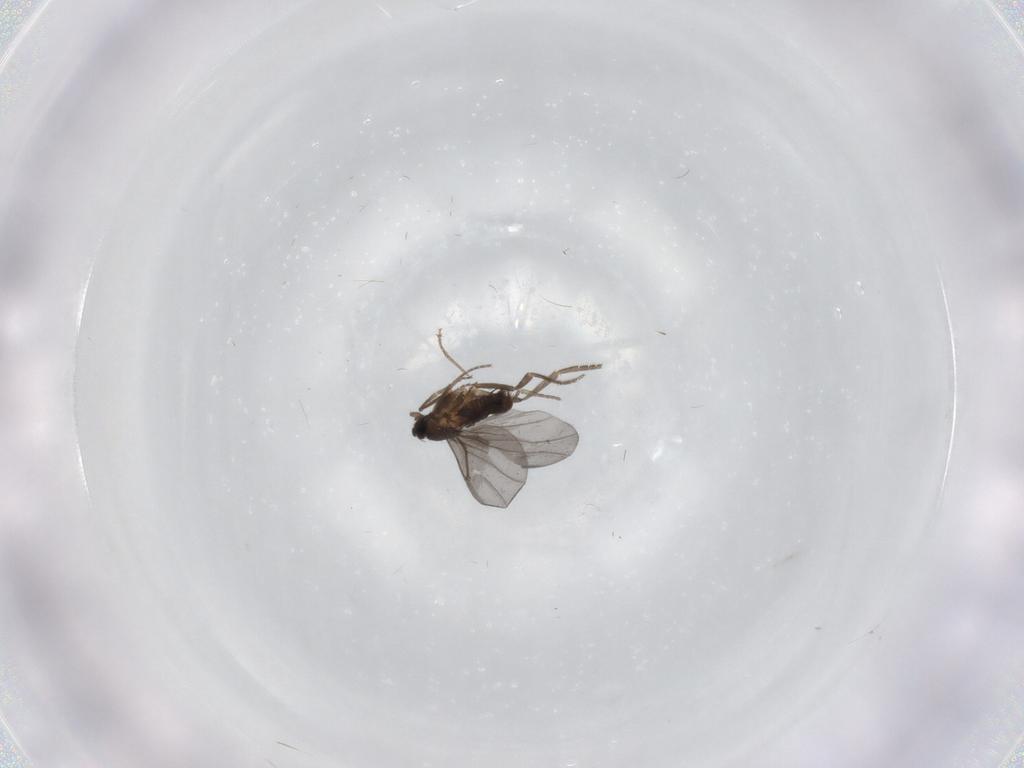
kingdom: Animalia
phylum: Arthropoda
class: Insecta
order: Diptera
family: Chironomidae
